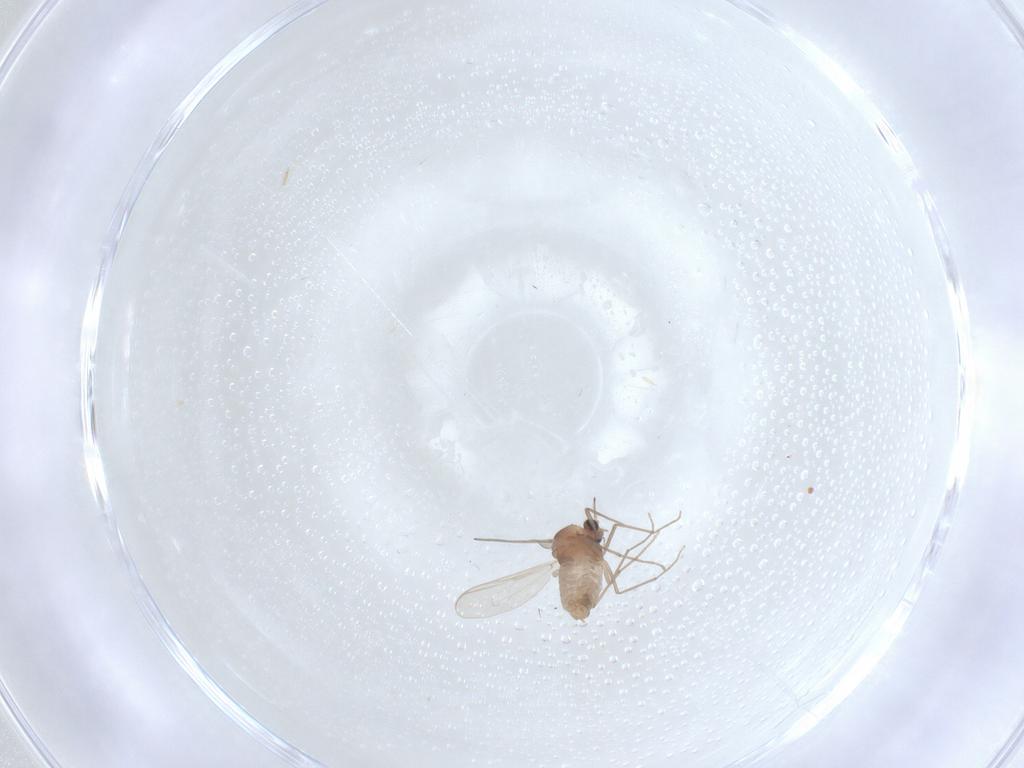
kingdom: Animalia
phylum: Arthropoda
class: Insecta
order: Diptera
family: Chironomidae
